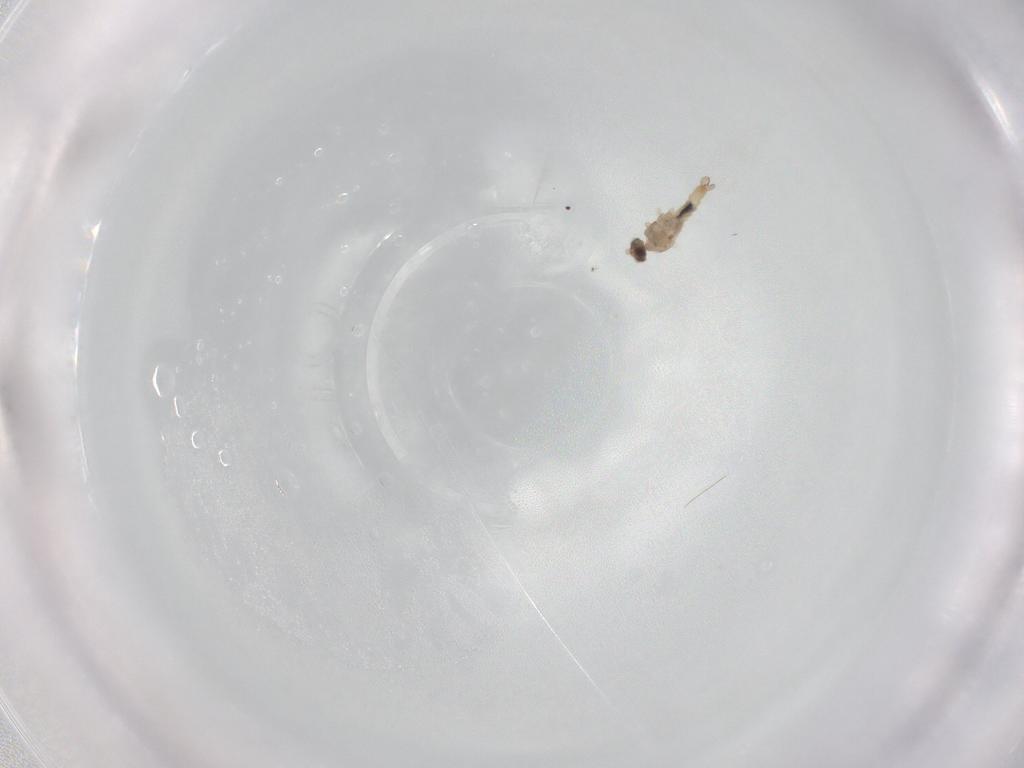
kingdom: Animalia
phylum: Arthropoda
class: Insecta
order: Diptera
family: Cecidomyiidae
